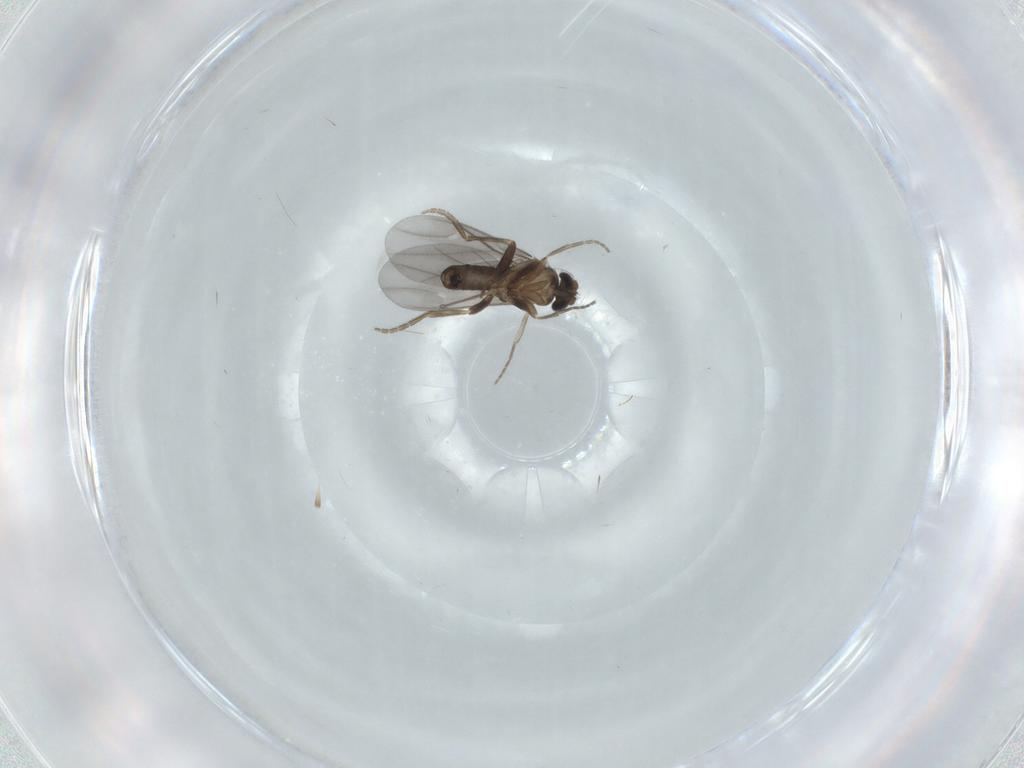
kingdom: Animalia
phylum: Arthropoda
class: Insecta
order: Diptera
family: Phoridae
